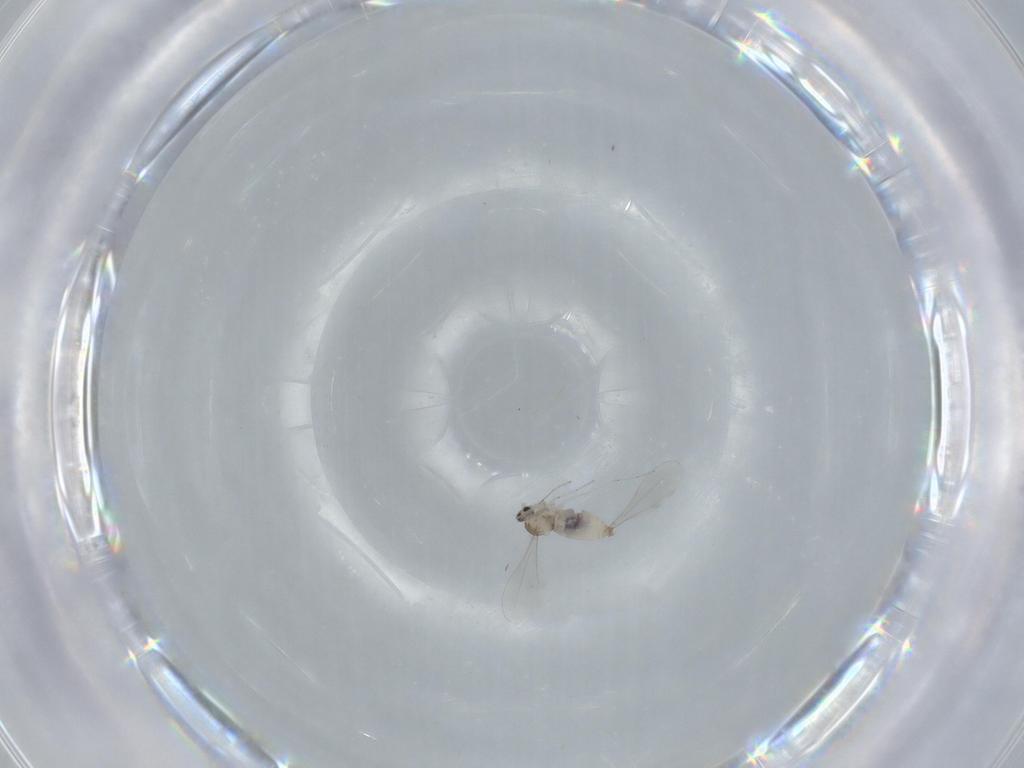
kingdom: Animalia
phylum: Arthropoda
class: Insecta
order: Diptera
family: Cecidomyiidae
